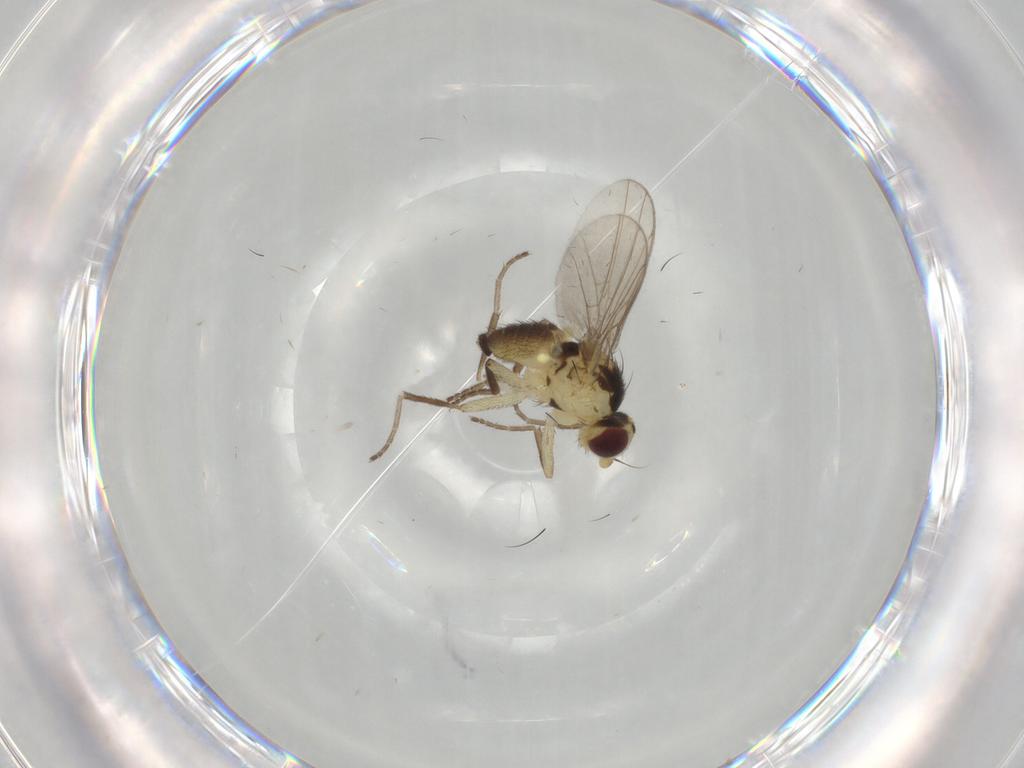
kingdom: Animalia
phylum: Arthropoda
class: Insecta
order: Diptera
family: Agromyzidae
